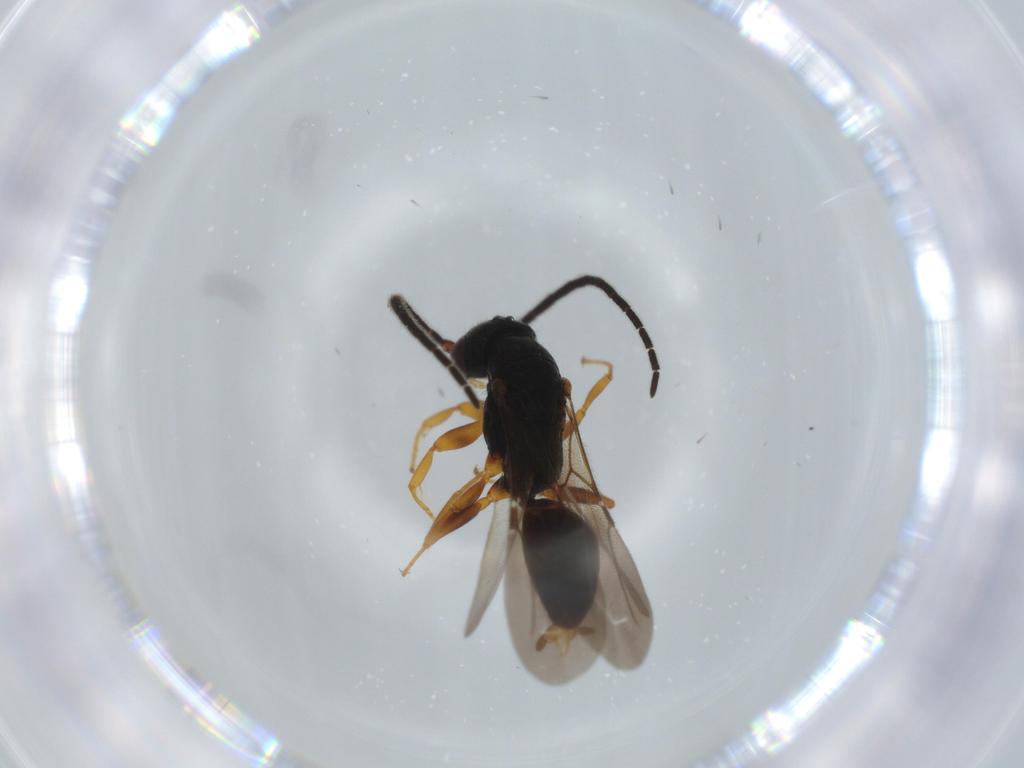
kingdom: Animalia
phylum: Arthropoda
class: Insecta
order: Hymenoptera
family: Bethylidae
